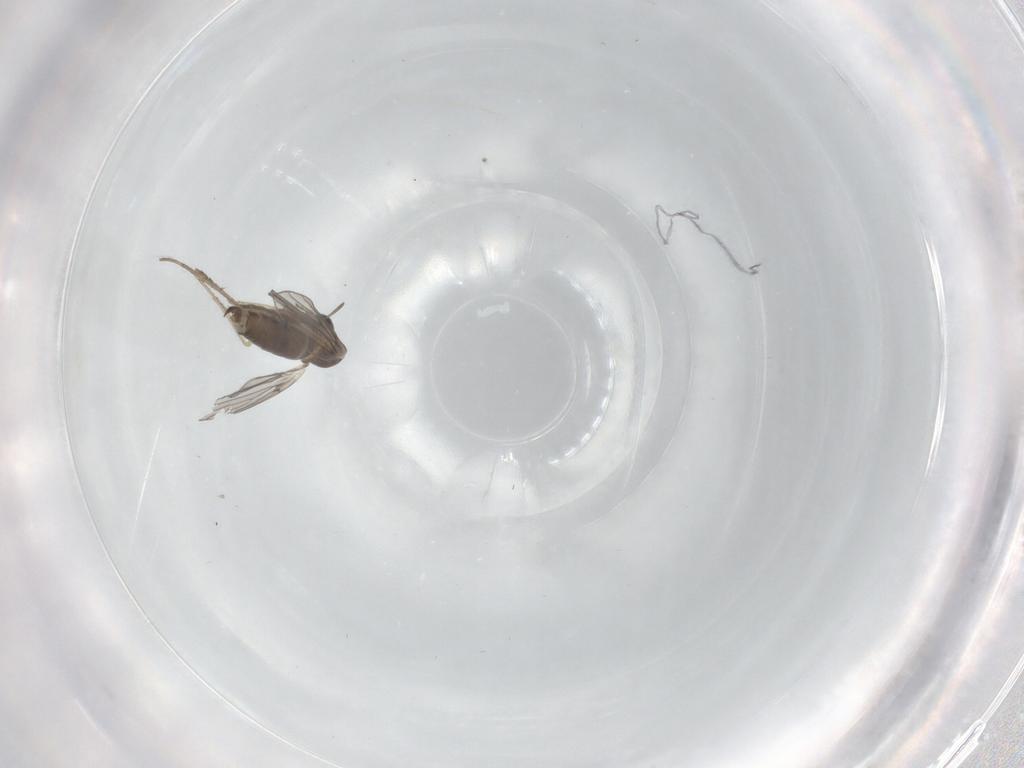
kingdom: Animalia
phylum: Arthropoda
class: Insecta
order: Diptera
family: Ceratopogonidae
